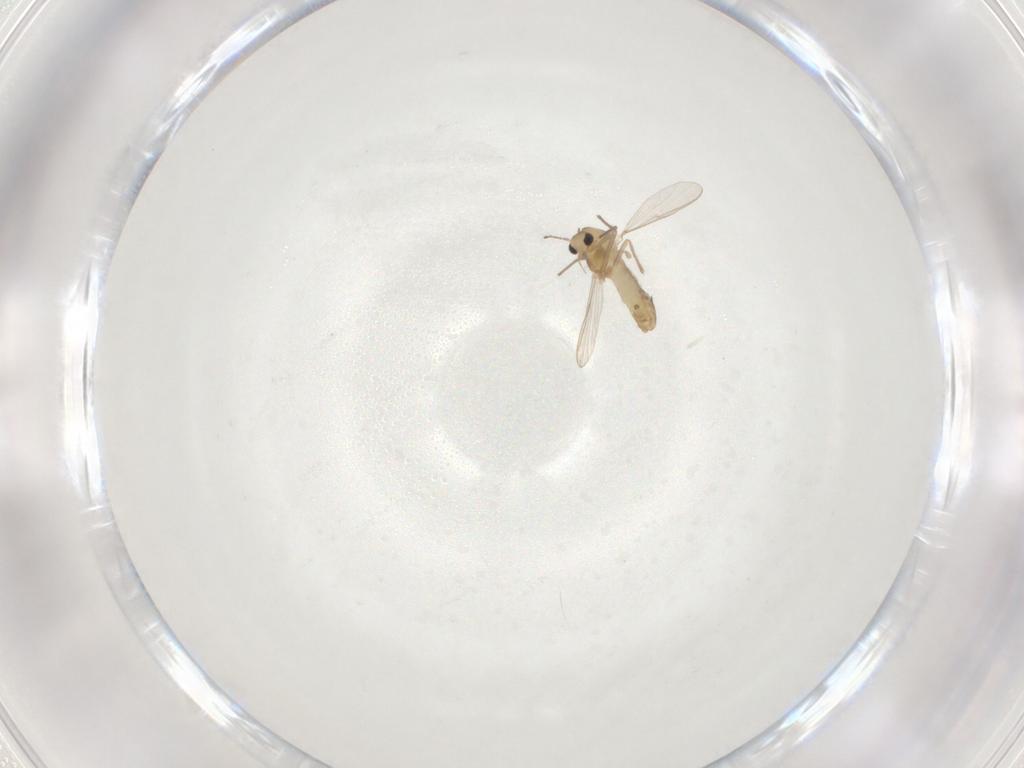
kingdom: Animalia
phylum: Arthropoda
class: Insecta
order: Diptera
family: Chironomidae
